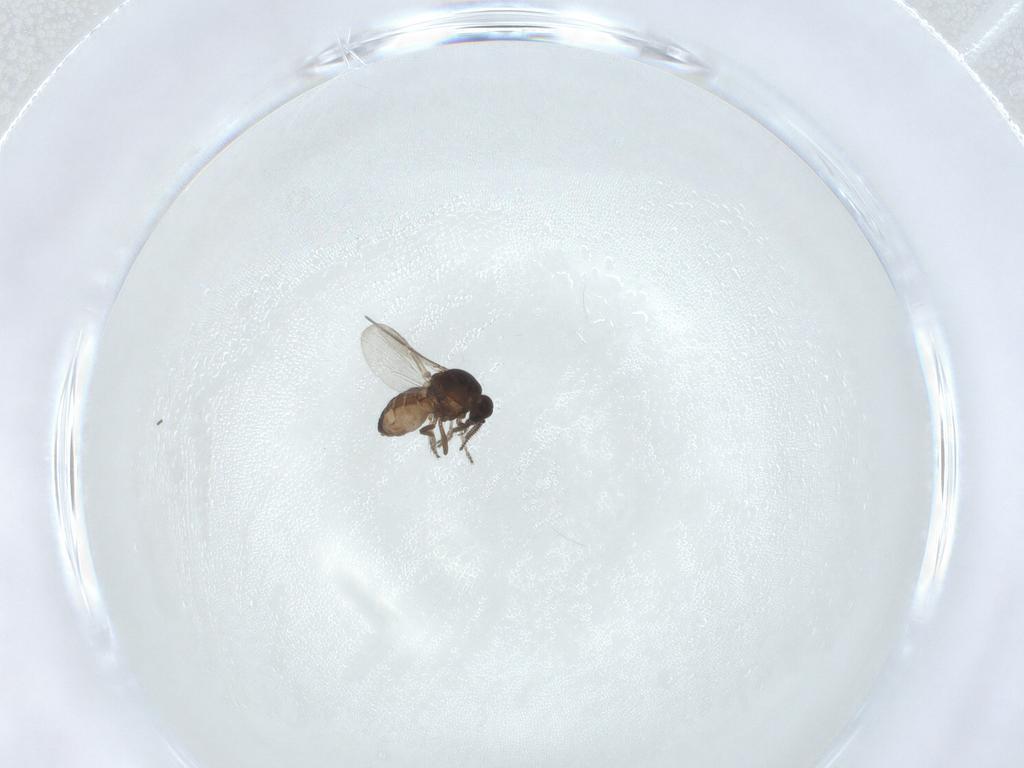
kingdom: Animalia
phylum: Arthropoda
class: Insecta
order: Diptera
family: Ceratopogonidae
